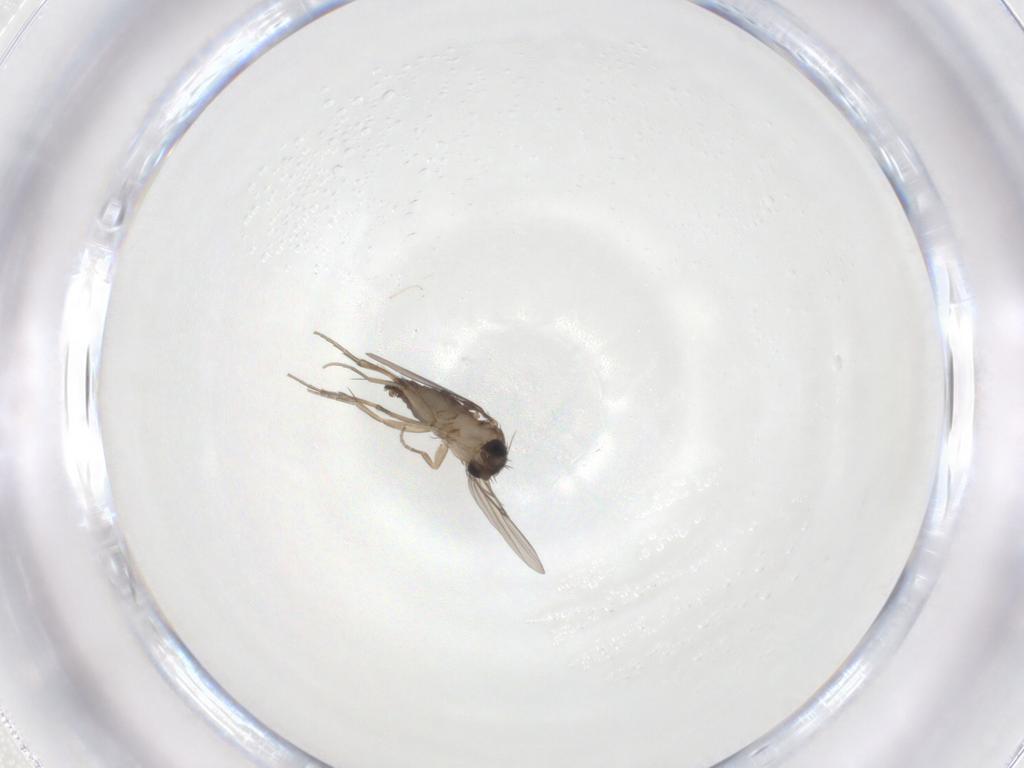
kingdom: Animalia
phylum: Arthropoda
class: Insecta
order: Diptera
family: Phoridae
